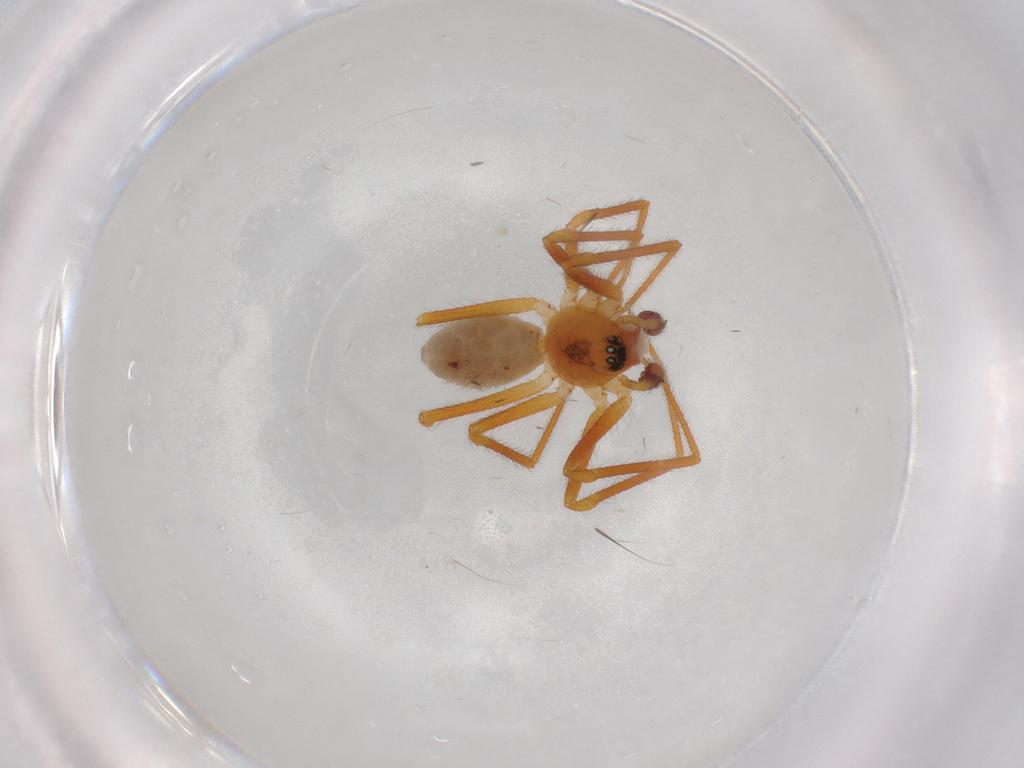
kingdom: Animalia
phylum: Arthropoda
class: Arachnida
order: Araneae
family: Linyphiidae
